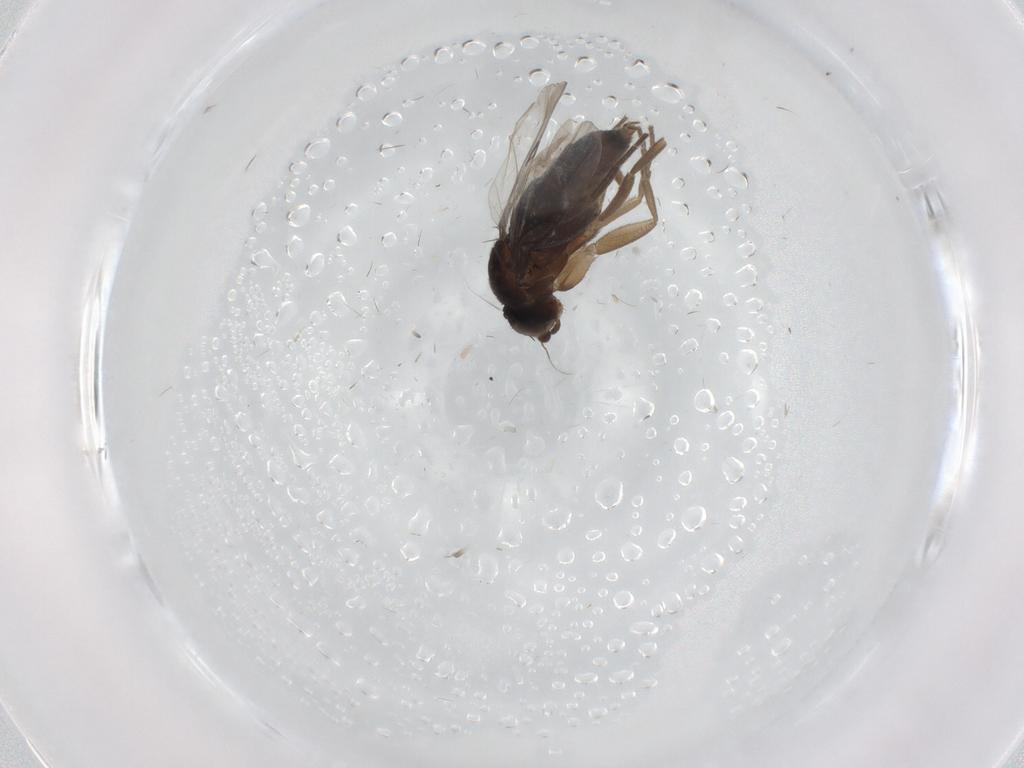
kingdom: Animalia
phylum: Arthropoda
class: Insecta
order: Diptera
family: Cecidomyiidae
